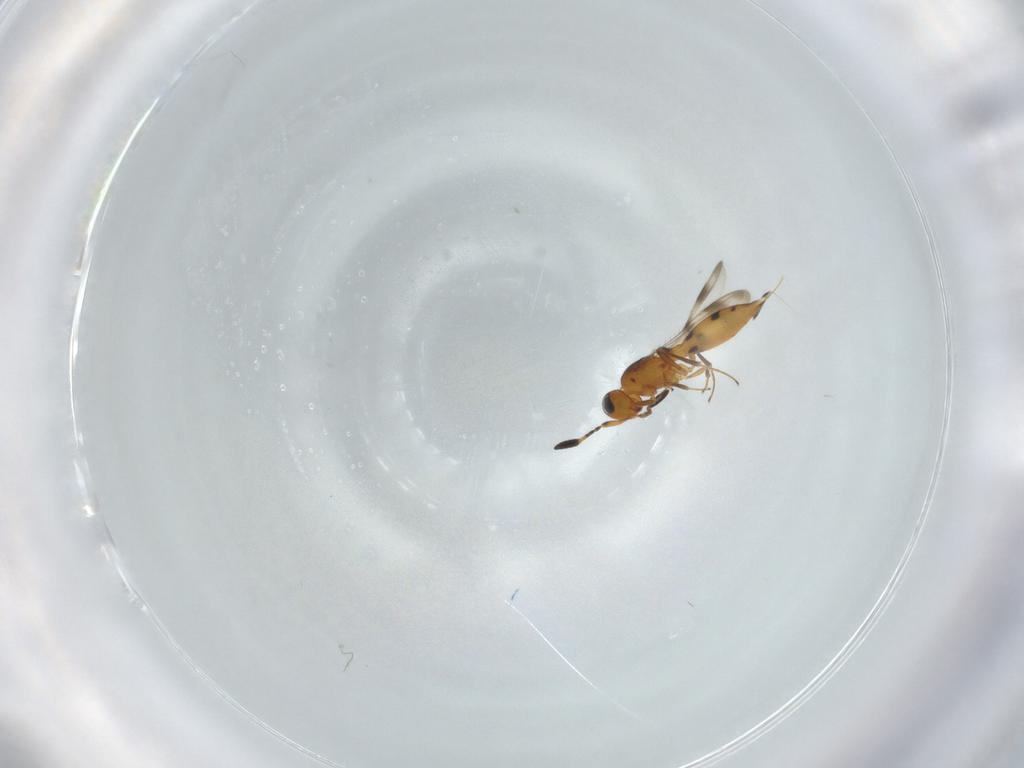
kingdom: Animalia
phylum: Arthropoda
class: Insecta
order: Hymenoptera
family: Scelionidae
